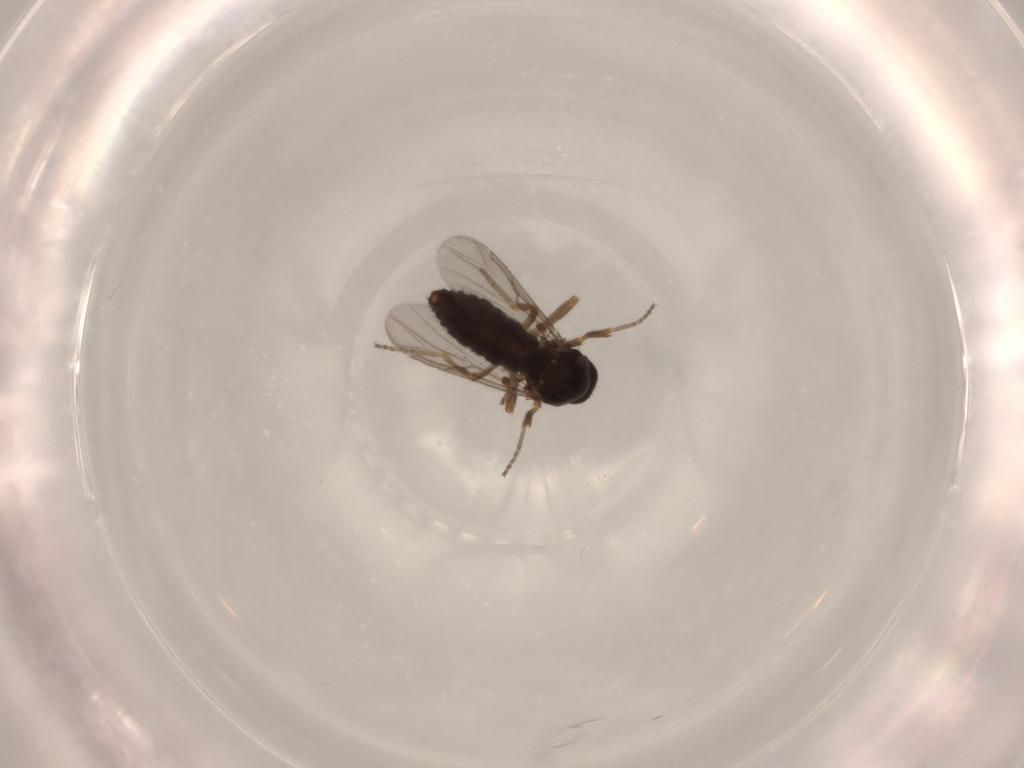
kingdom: Animalia
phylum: Arthropoda
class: Insecta
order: Diptera
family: Ceratopogonidae
